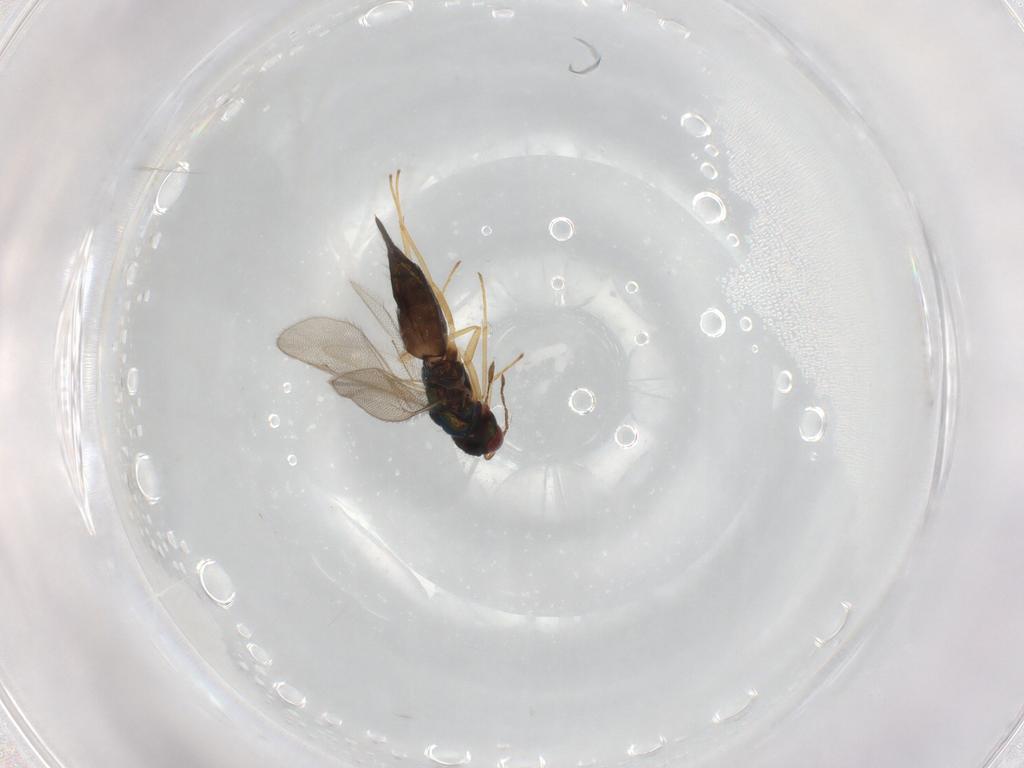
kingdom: Animalia
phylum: Arthropoda
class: Insecta
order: Hymenoptera
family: Eulophidae
